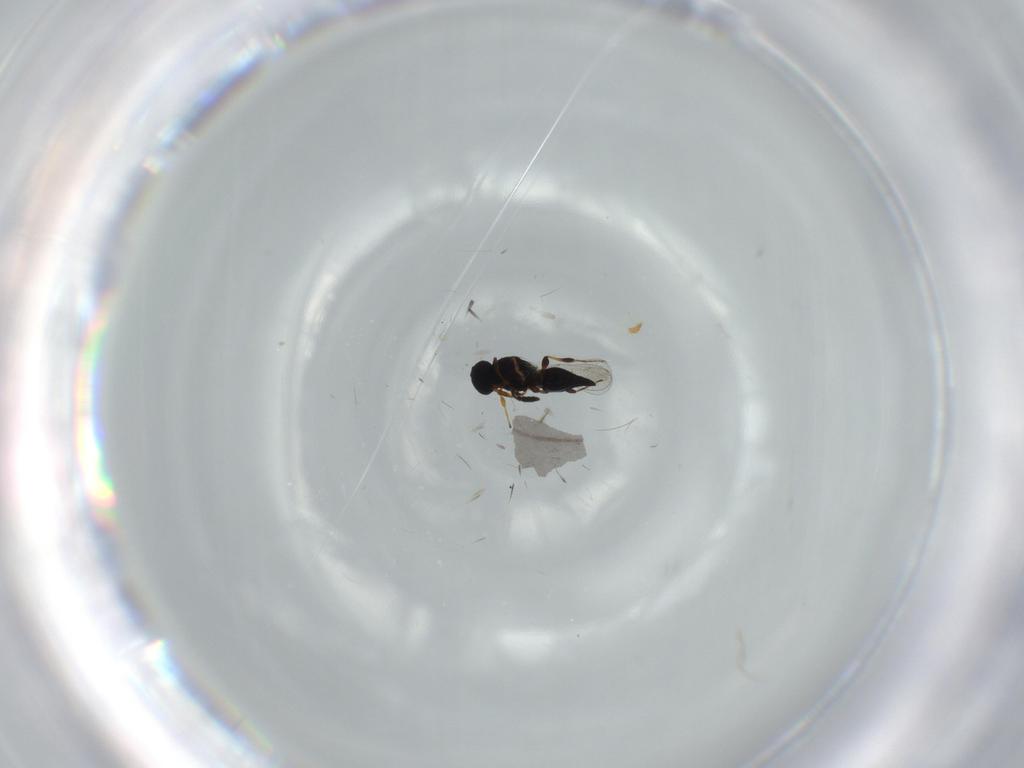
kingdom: Animalia
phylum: Arthropoda
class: Insecta
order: Hymenoptera
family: Platygastridae
